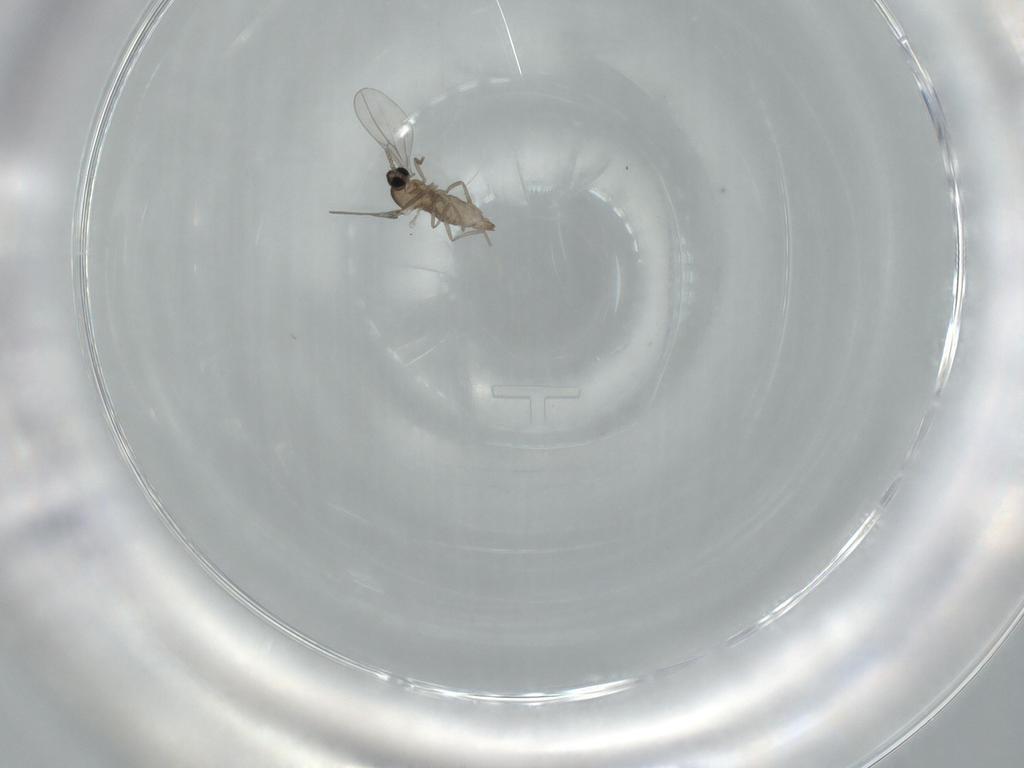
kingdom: Animalia
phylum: Arthropoda
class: Insecta
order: Diptera
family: Cecidomyiidae
